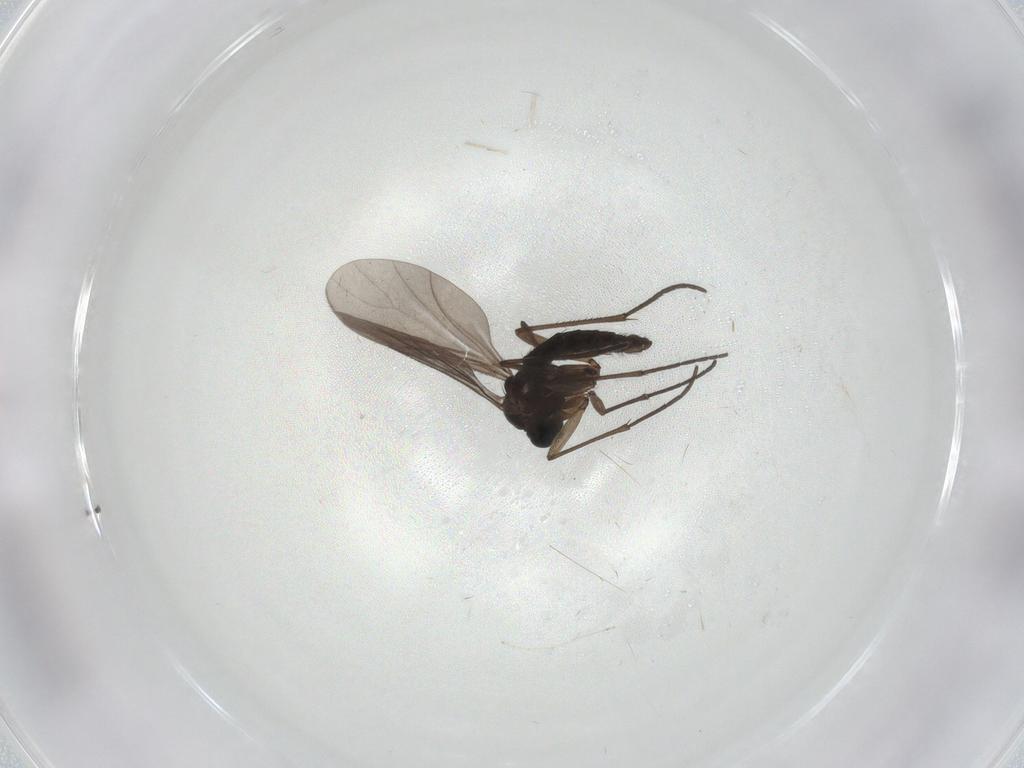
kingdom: Animalia
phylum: Arthropoda
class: Insecta
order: Diptera
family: Sciaridae
